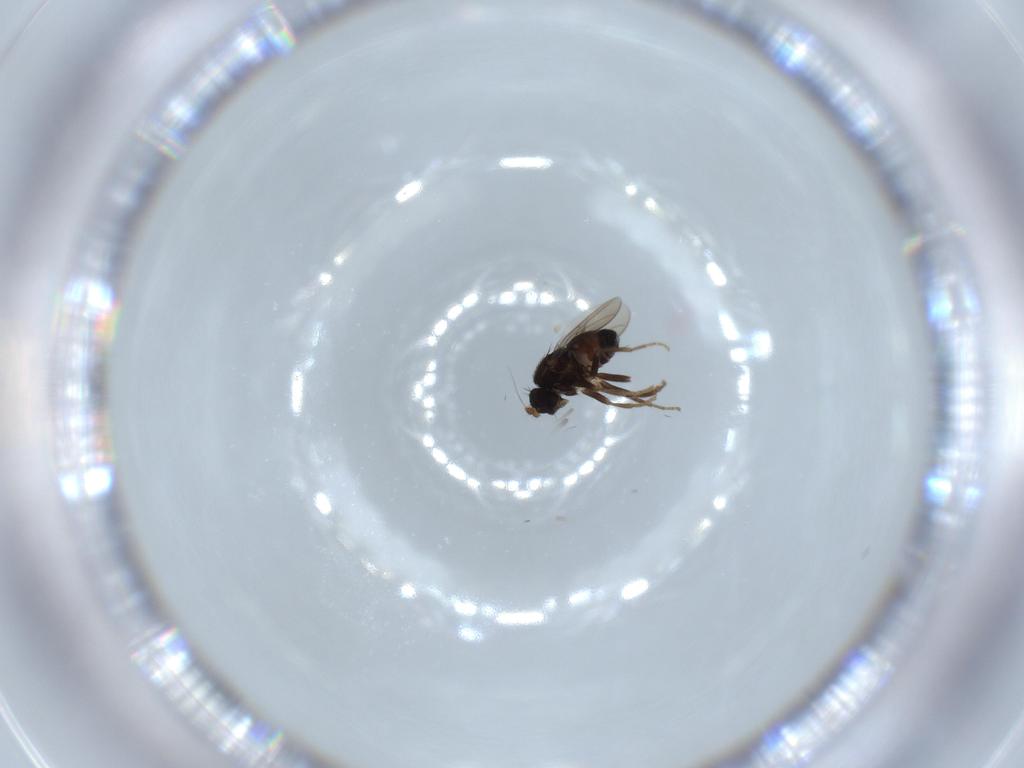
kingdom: Animalia
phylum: Arthropoda
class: Insecta
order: Diptera
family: Sphaeroceridae
